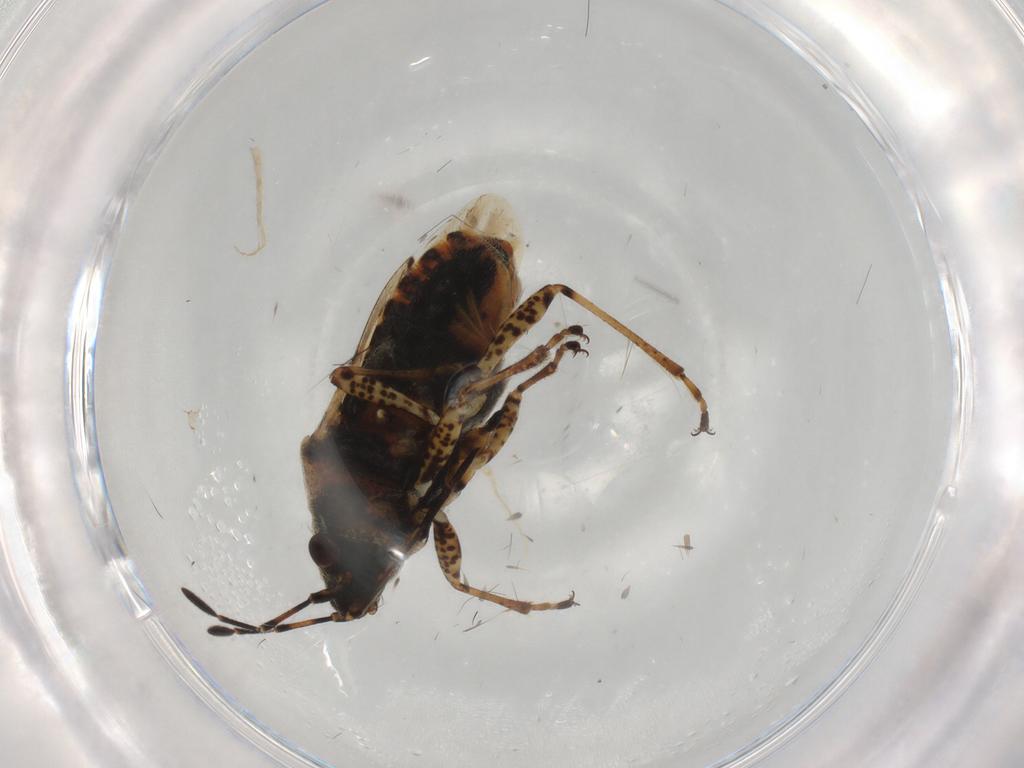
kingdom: Animalia
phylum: Arthropoda
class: Insecta
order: Hemiptera
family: Lygaeidae
